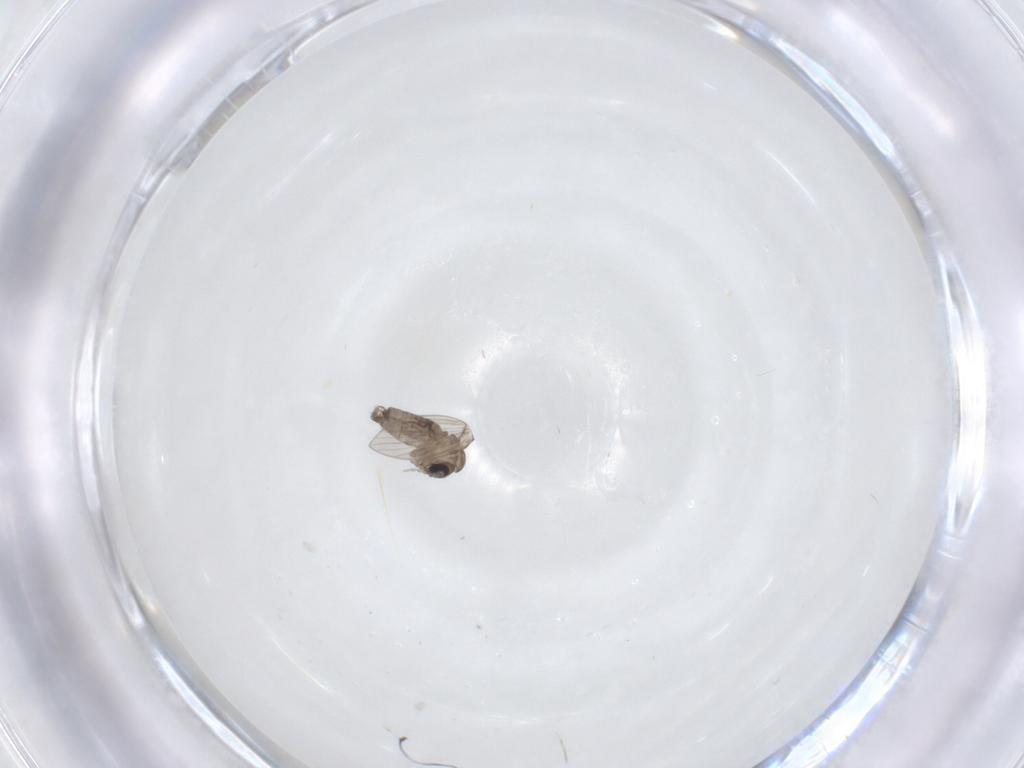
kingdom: Animalia
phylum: Arthropoda
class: Insecta
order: Diptera
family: Psychodidae
